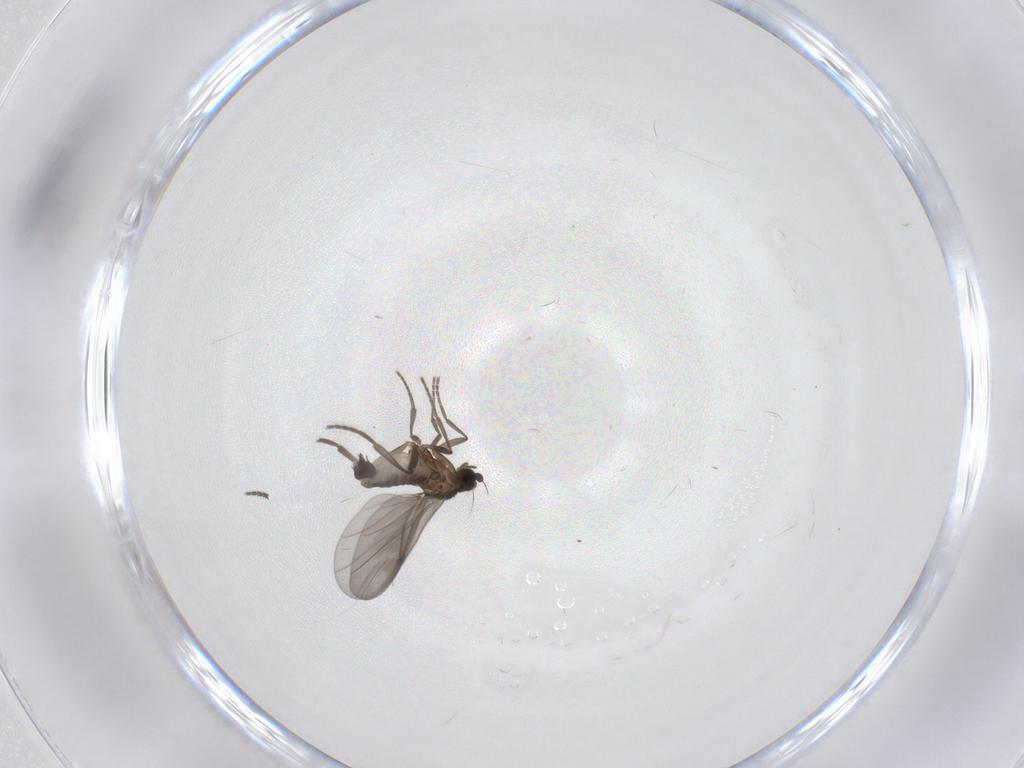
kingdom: Animalia
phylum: Arthropoda
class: Insecta
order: Diptera
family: Phoridae
